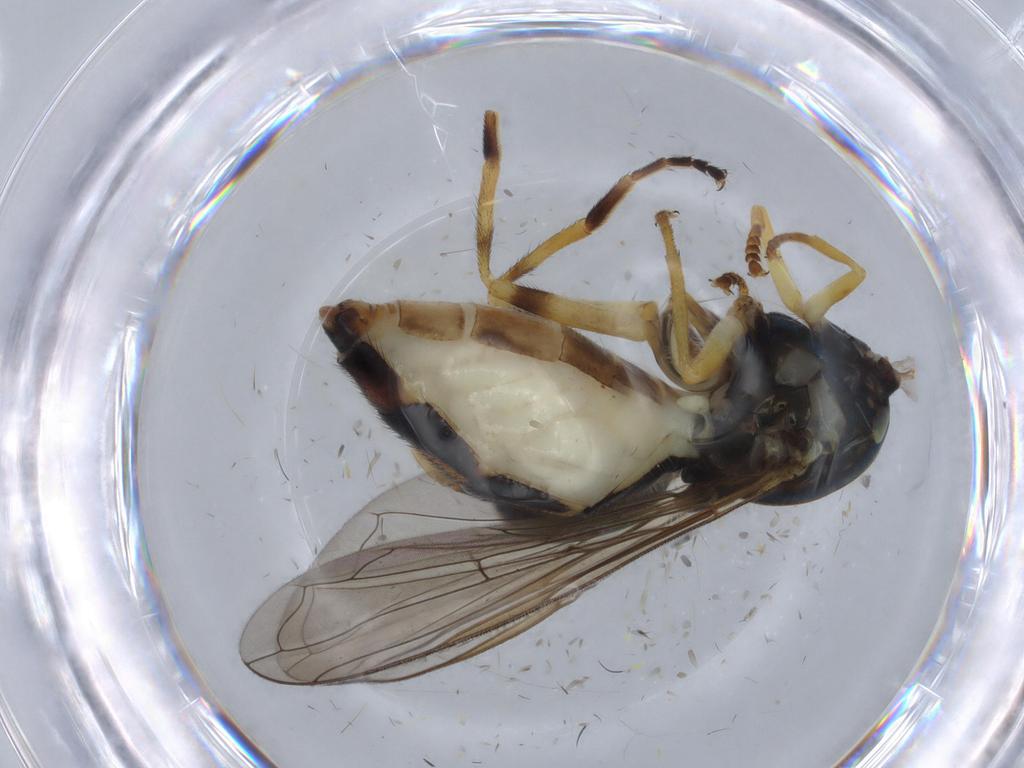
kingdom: Animalia
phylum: Arthropoda
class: Insecta
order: Diptera
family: Syrphidae
